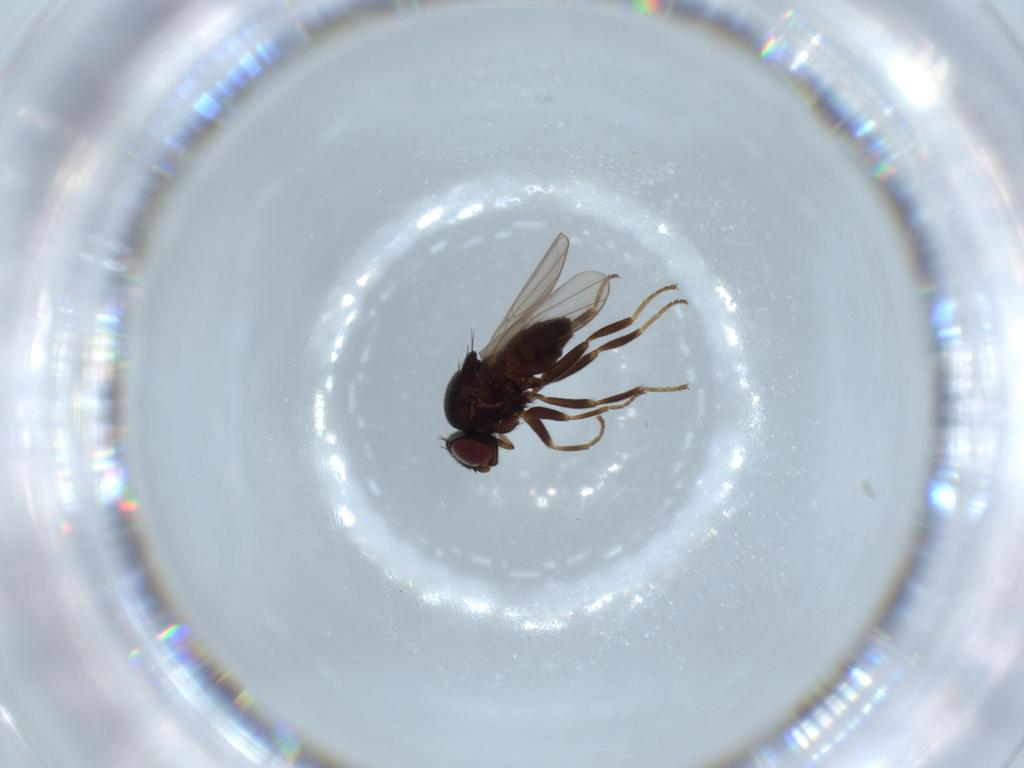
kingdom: Animalia
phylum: Arthropoda
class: Insecta
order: Diptera
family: Chloropidae
